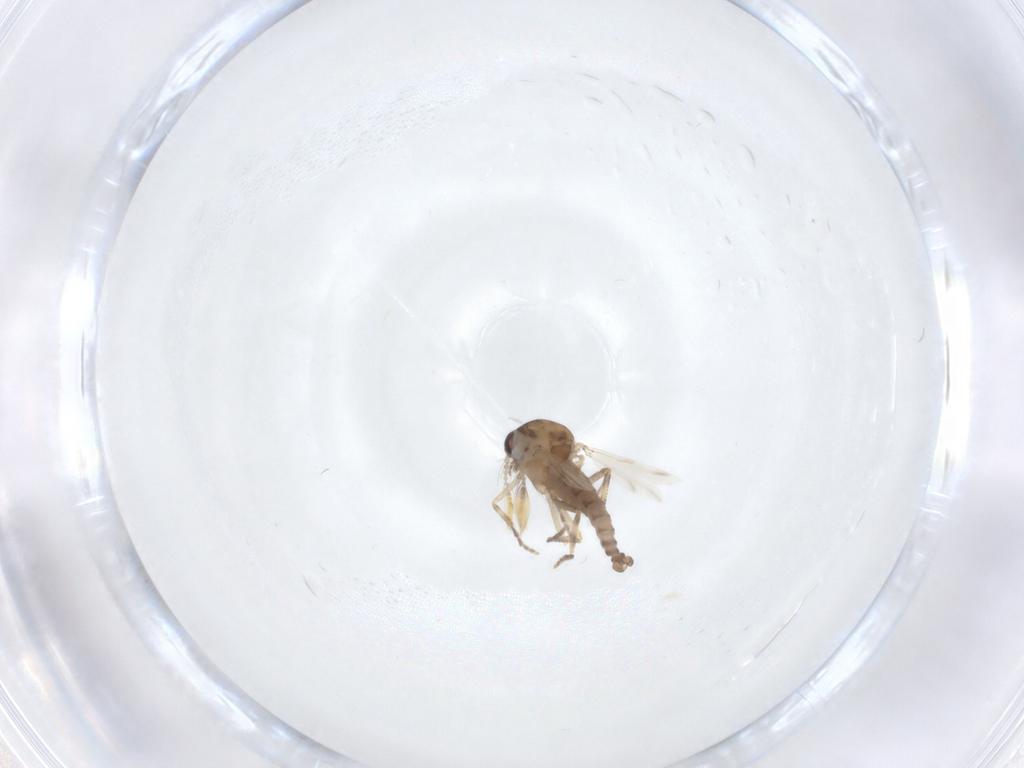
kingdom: Animalia
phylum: Arthropoda
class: Insecta
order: Diptera
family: Ceratopogonidae
